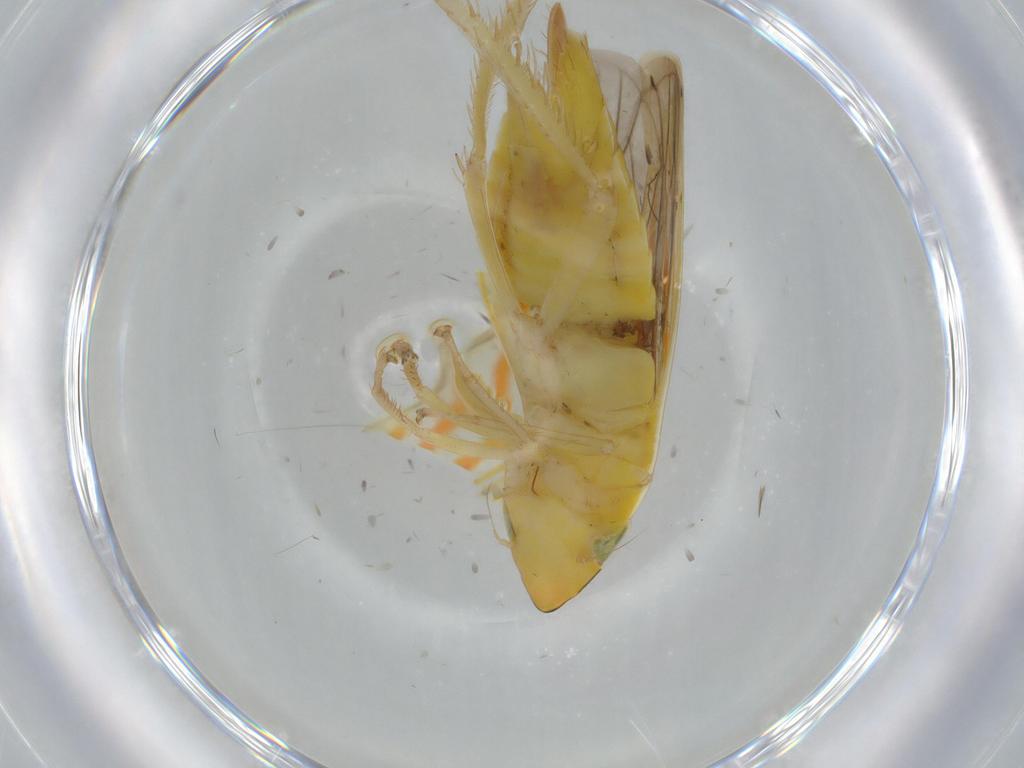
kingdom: Animalia
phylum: Arthropoda
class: Insecta
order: Hemiptera
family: Cicadellidae
